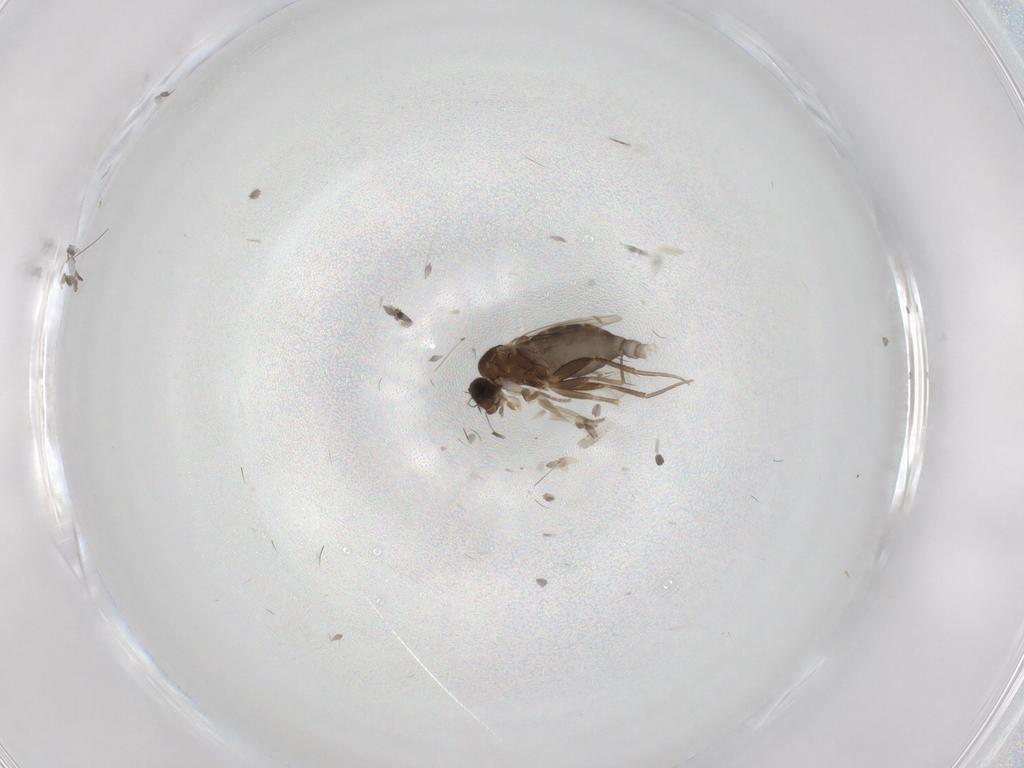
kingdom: Animalia
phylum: Arthropoda
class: Insecta
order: Diptera
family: Phoridae
